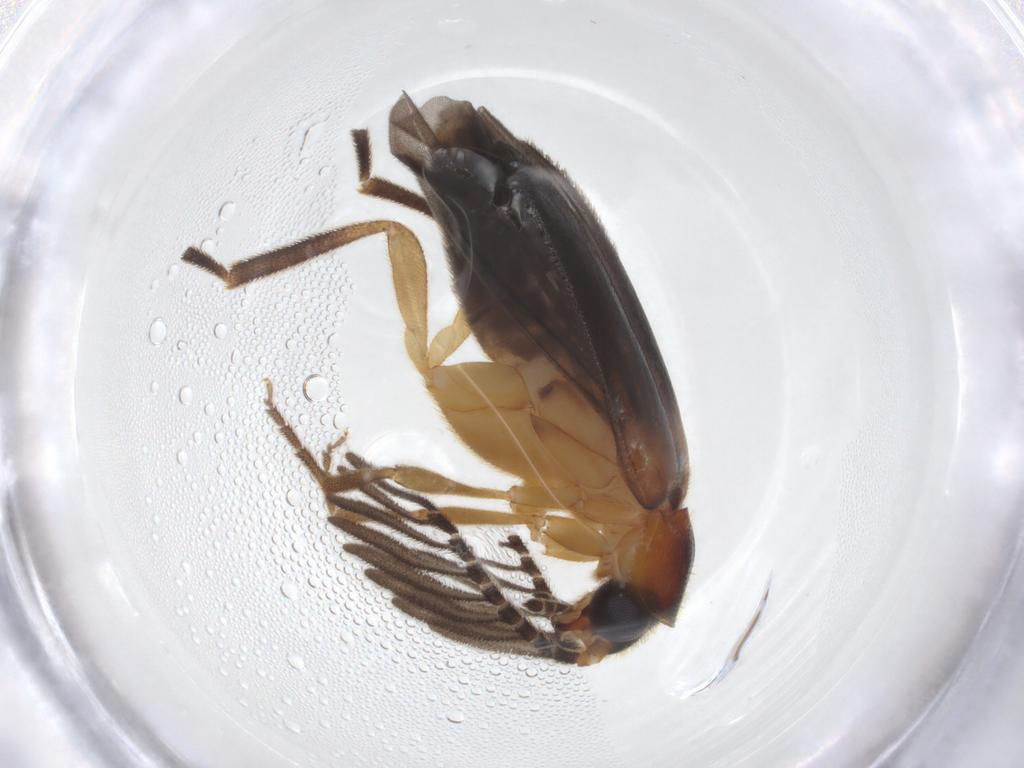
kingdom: Animalia
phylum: Arthropoda
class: Insecta
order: Coleoptera
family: Lampyridae
